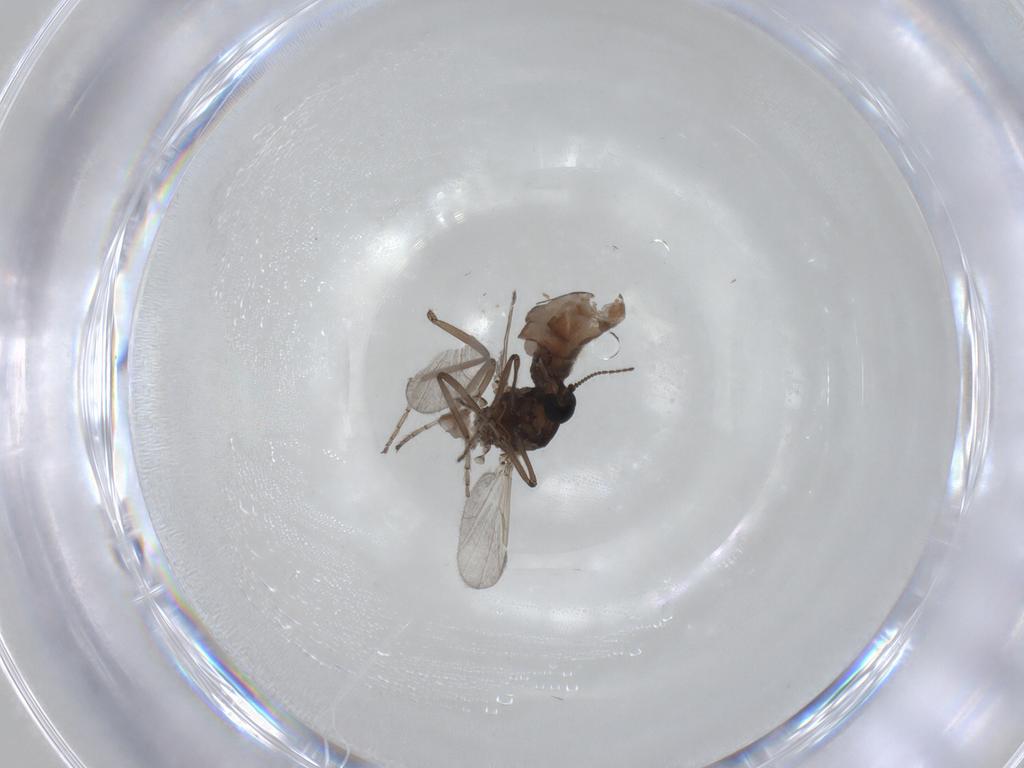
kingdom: Animalia
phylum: Arthropoda
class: Insecta
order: Diptera
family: Ceratopogonidae
